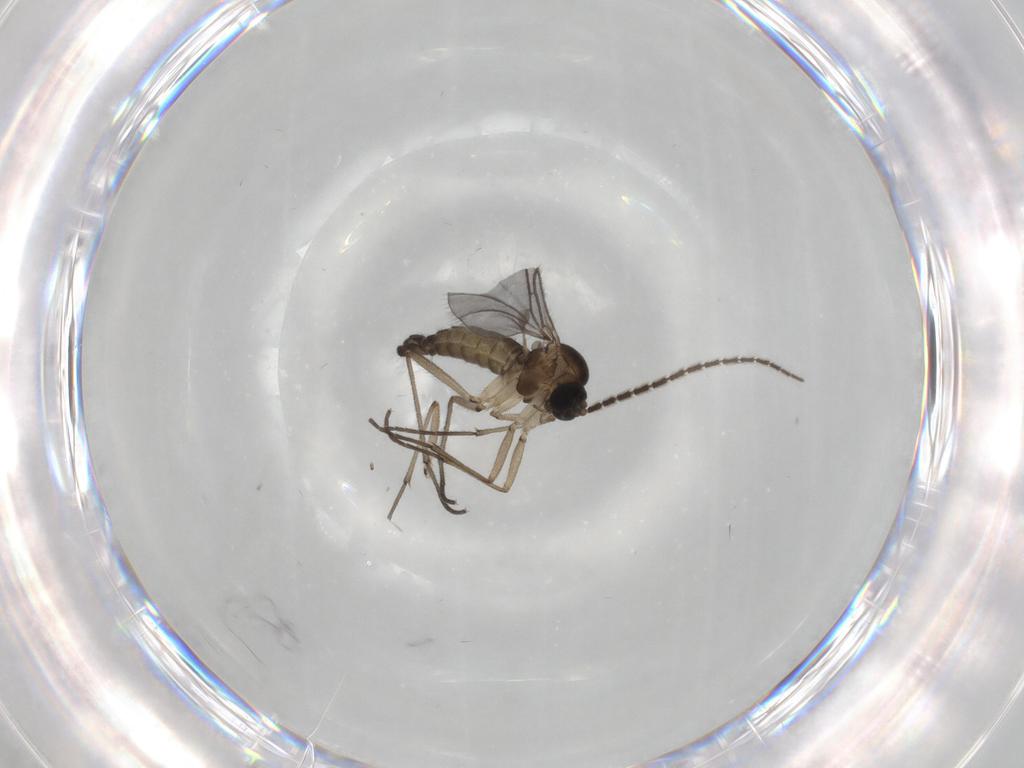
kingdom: Animalia
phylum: Arthropoda
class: Insecta
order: Diptera
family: Sciaridae
